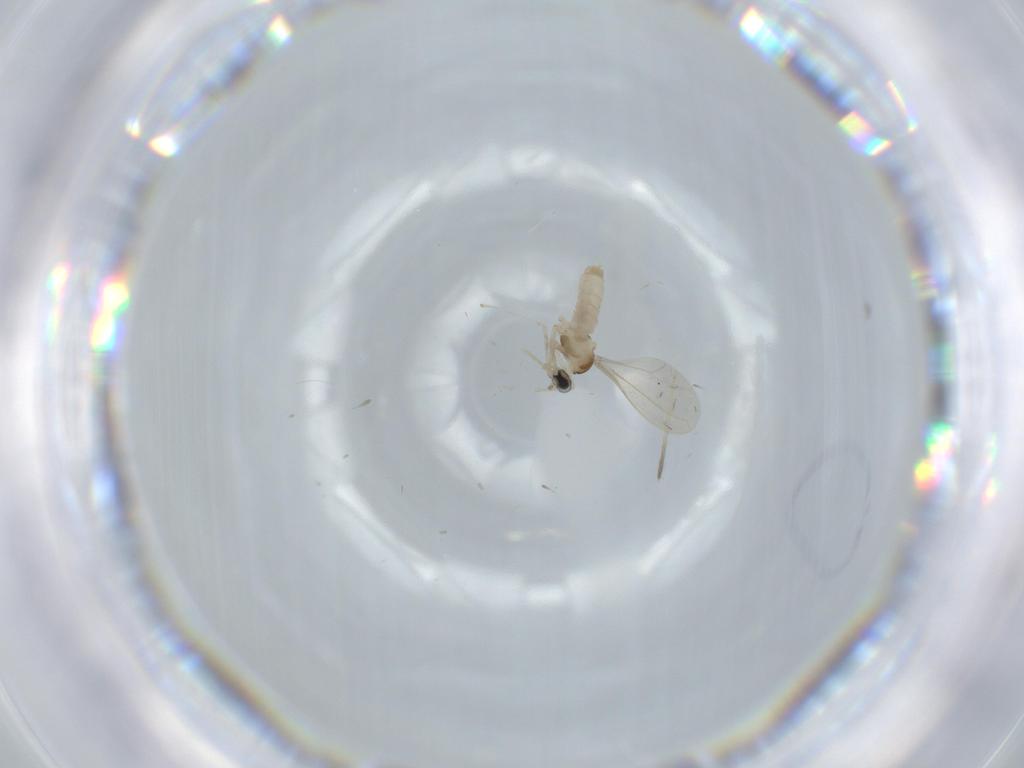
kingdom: Animalia
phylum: Arthropoda
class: Insecta
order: Diptera
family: Cecidomyiidae
